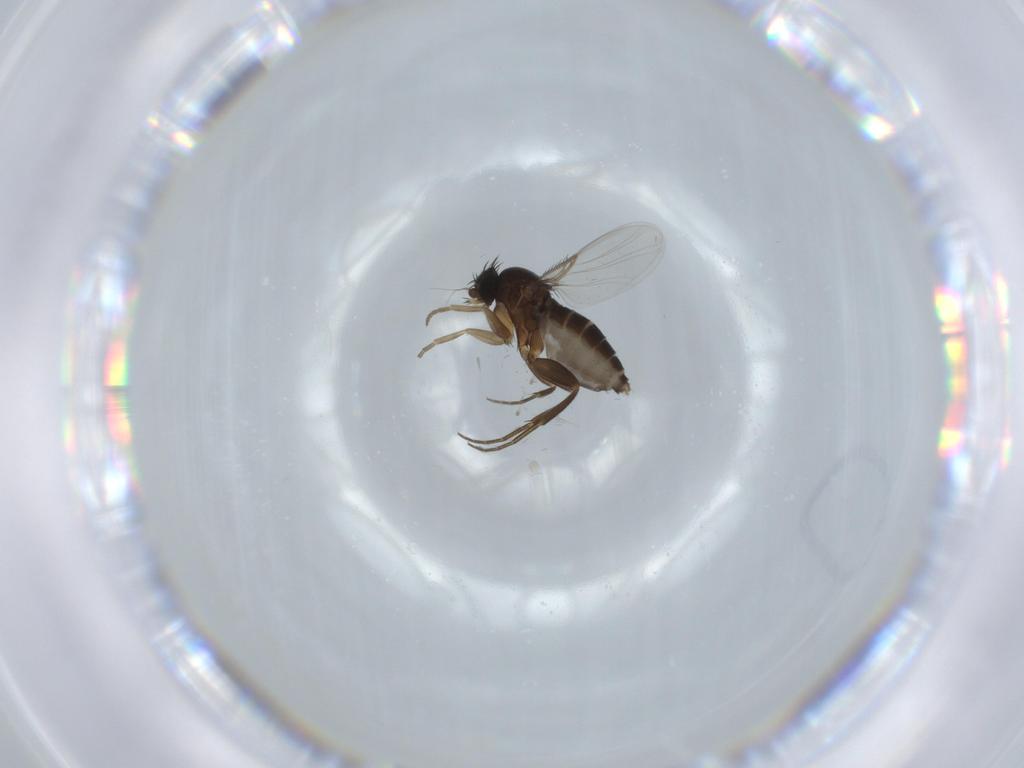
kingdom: Animalia
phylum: Arthropoda
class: Insecta
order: Diptera
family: Phoridae
